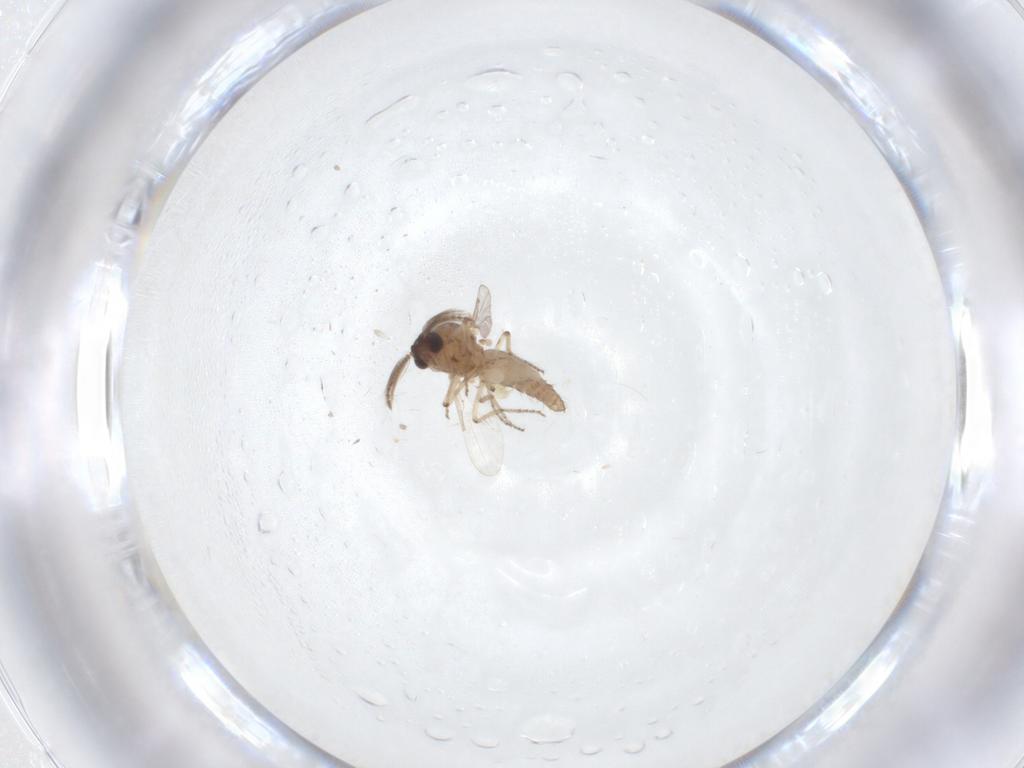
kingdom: Animalia
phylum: Arthropoda
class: Insecta
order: Diptera
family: Ceratopogonidae
